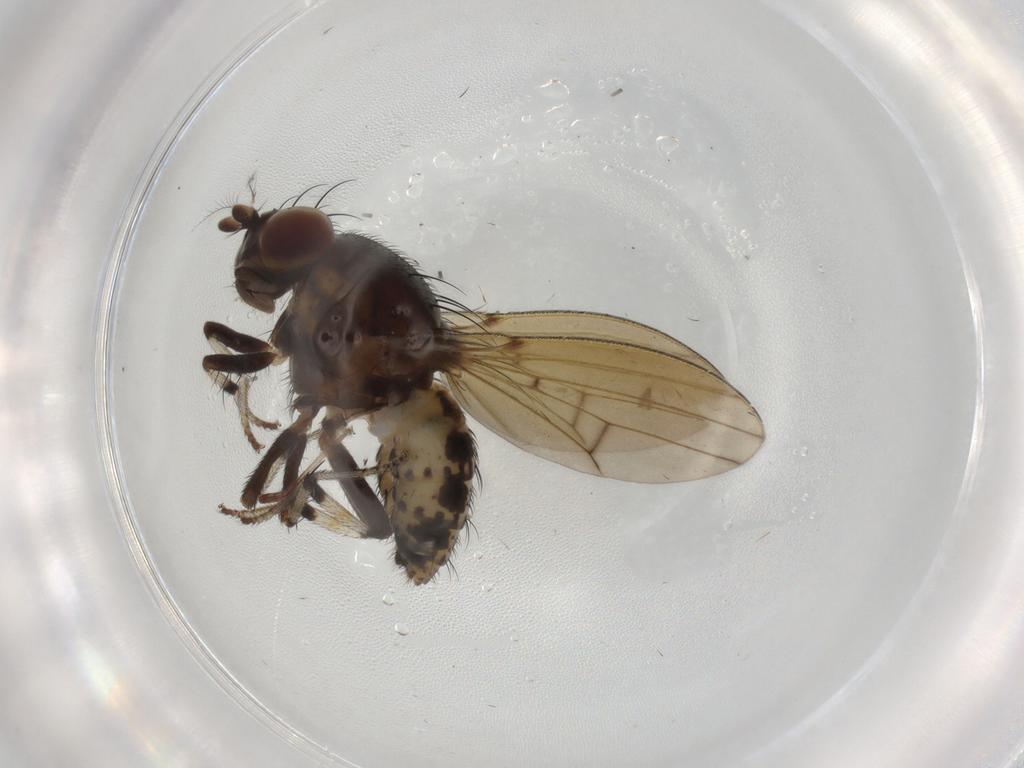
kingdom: Animalia
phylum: Arthropoda
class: Insecta
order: Diptera
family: Lauxaniidae
